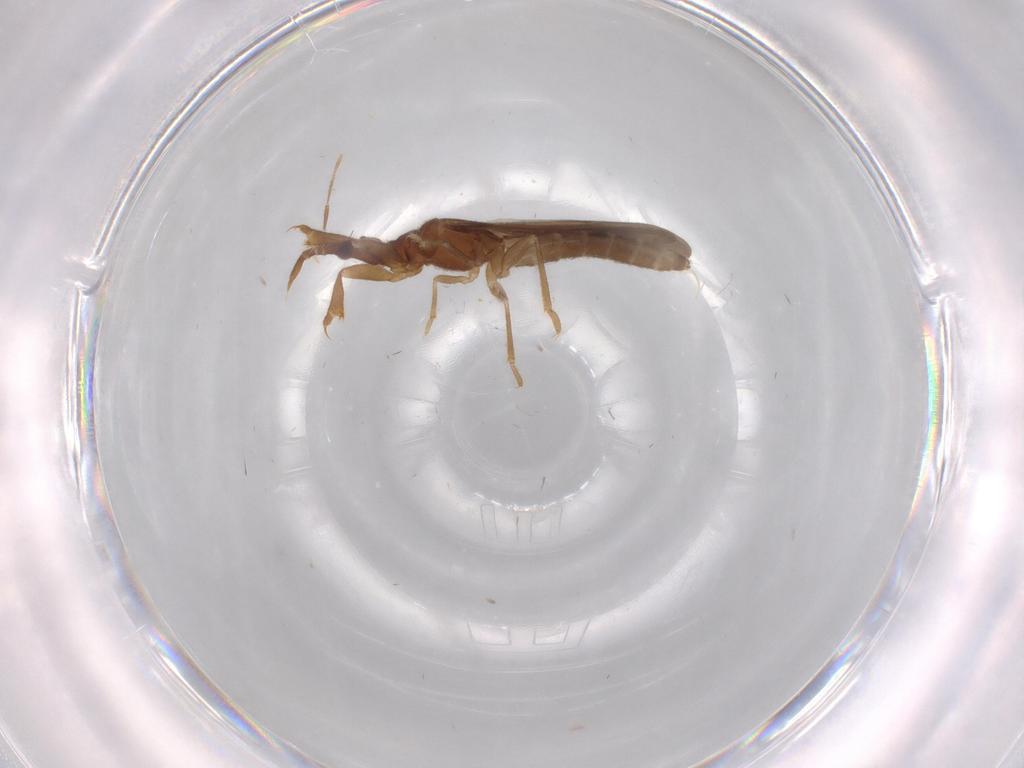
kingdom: Animalia
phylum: Arthropoda
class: Insecta
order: Hemiptera
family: Enicocephalidae
